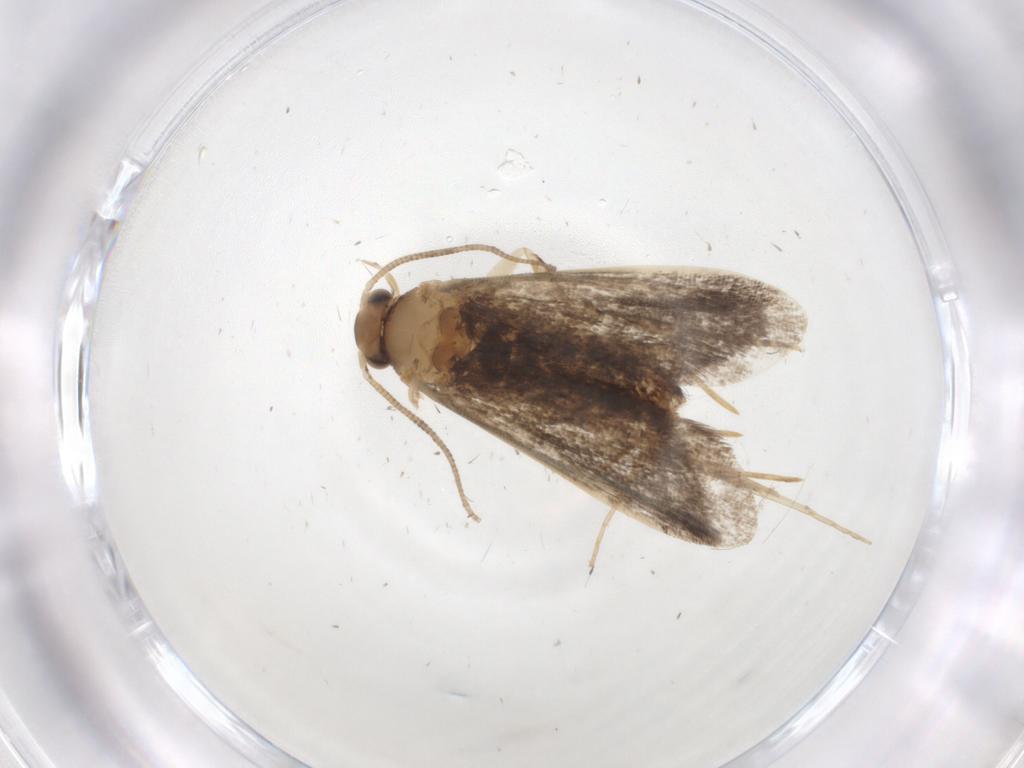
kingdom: Animalia
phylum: Arthropoda
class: Insecta
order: Lepidoptera
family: Dryadaulidae
